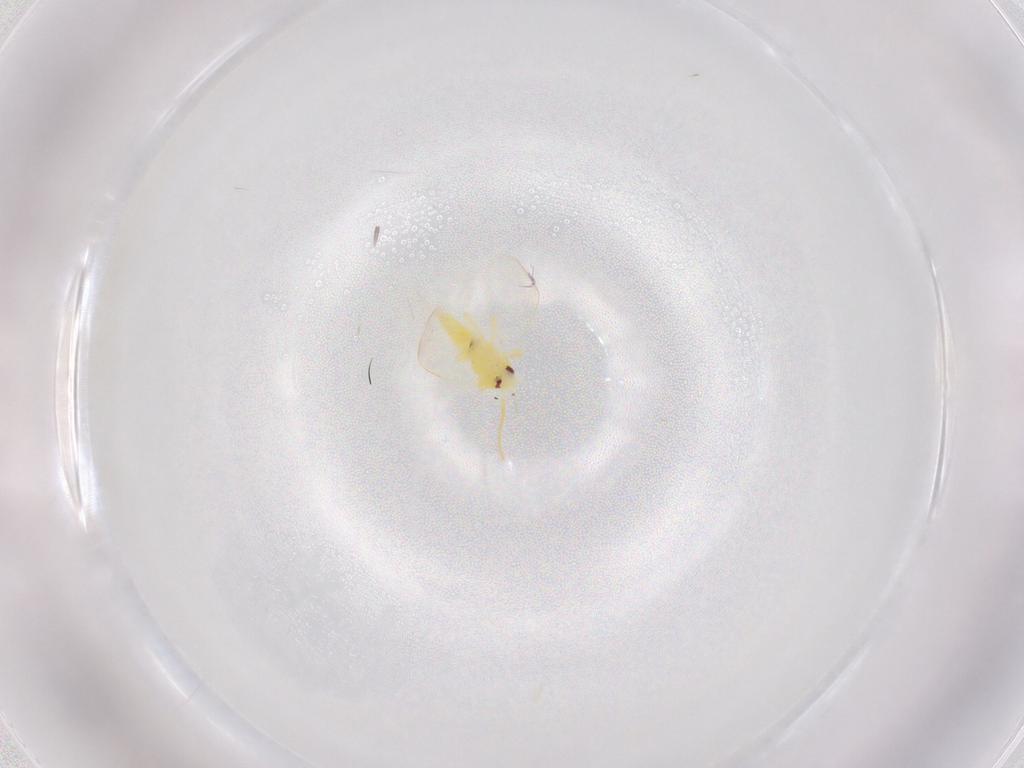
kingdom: Animalia
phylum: Arthropoda
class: Insecta
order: Hemiptera
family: Aleyrodidae
